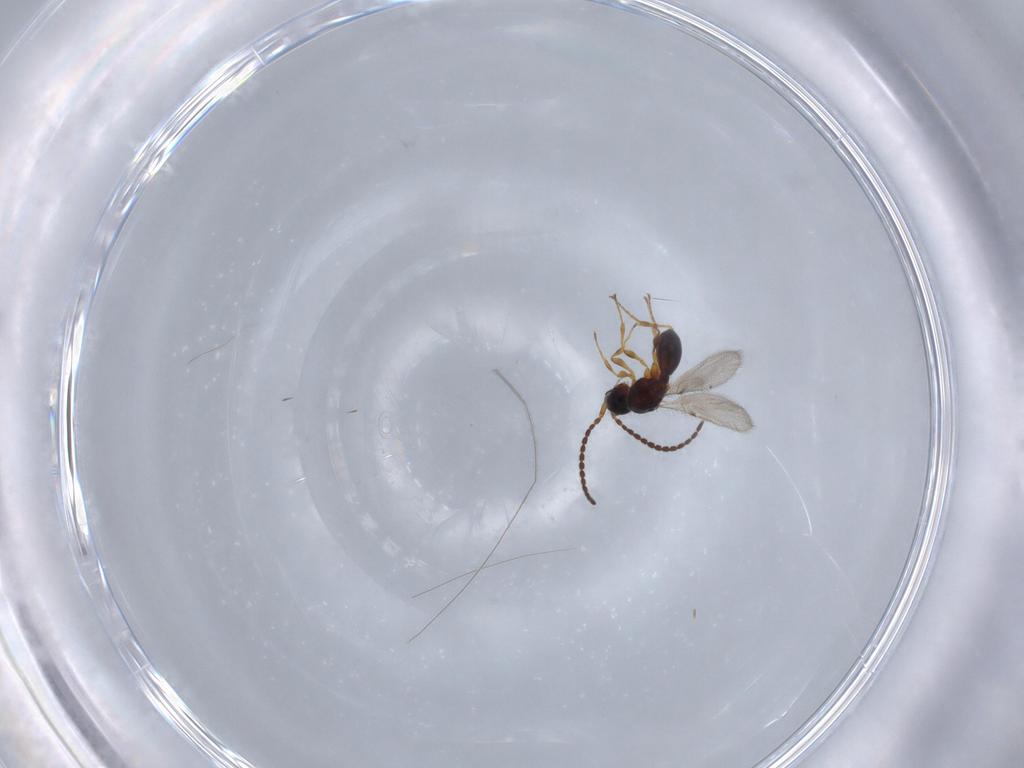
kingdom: Animalia
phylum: Arthropoda
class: Insecta
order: Hymenoptera
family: Diapriidae
